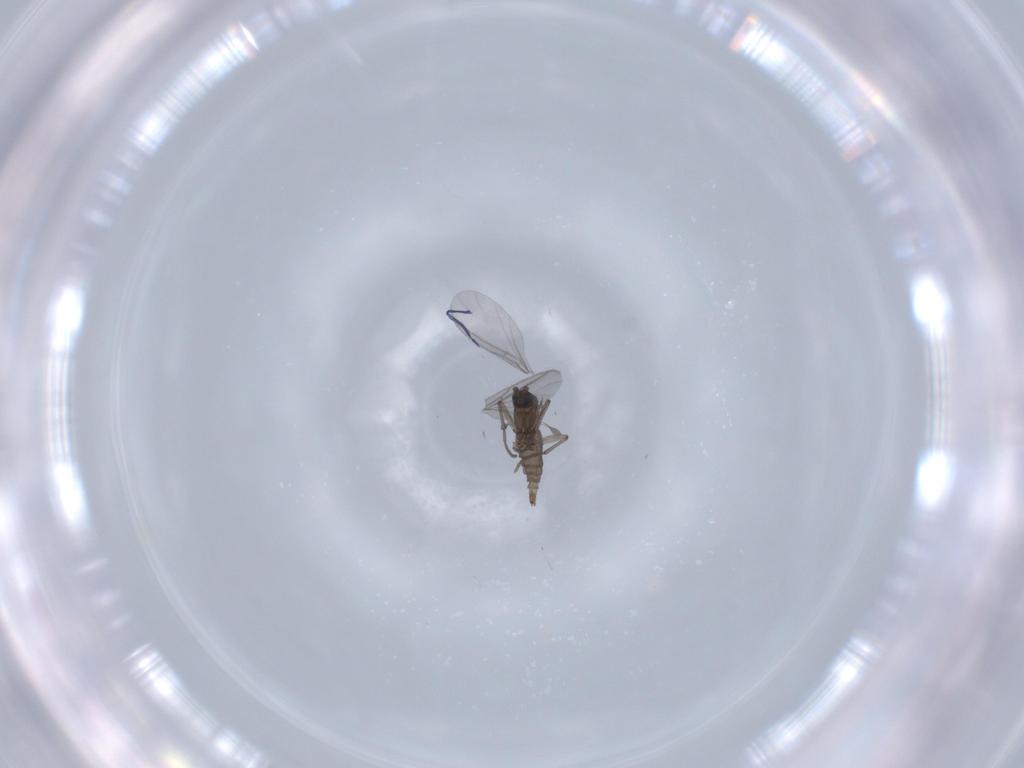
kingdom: Animalia
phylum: Arthropoda
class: Insecta
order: Diptera
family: Sciaridae
